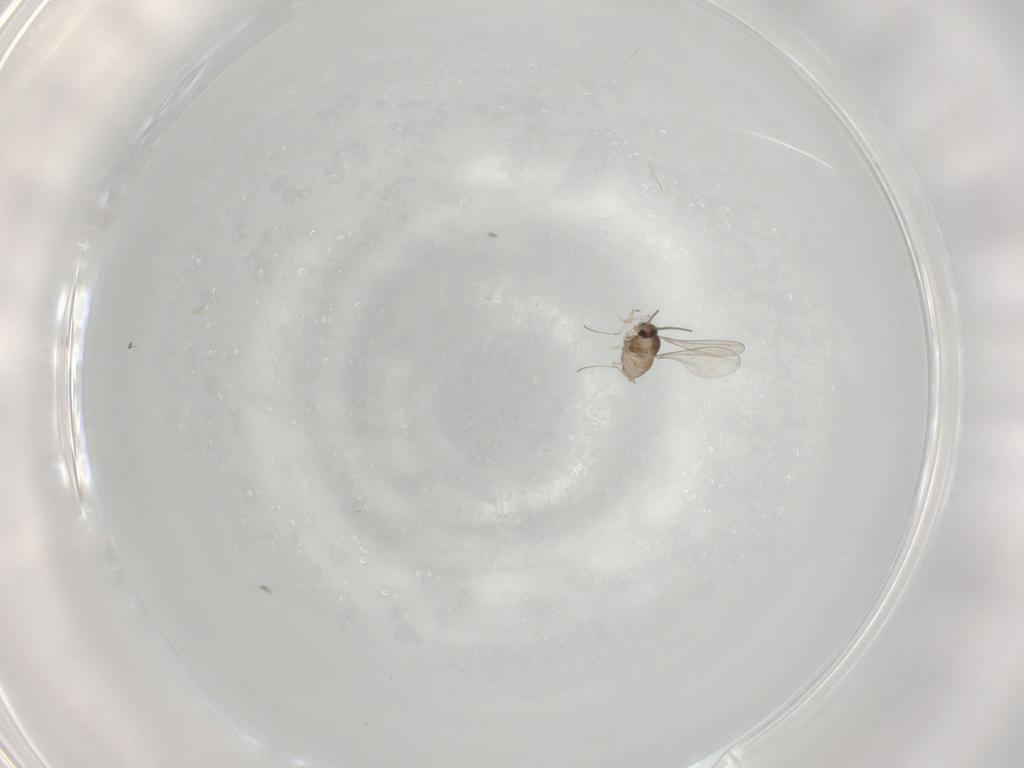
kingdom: Animalia
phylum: Arthropoda
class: Insecta
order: Diptera
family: Cecidomyiidae
